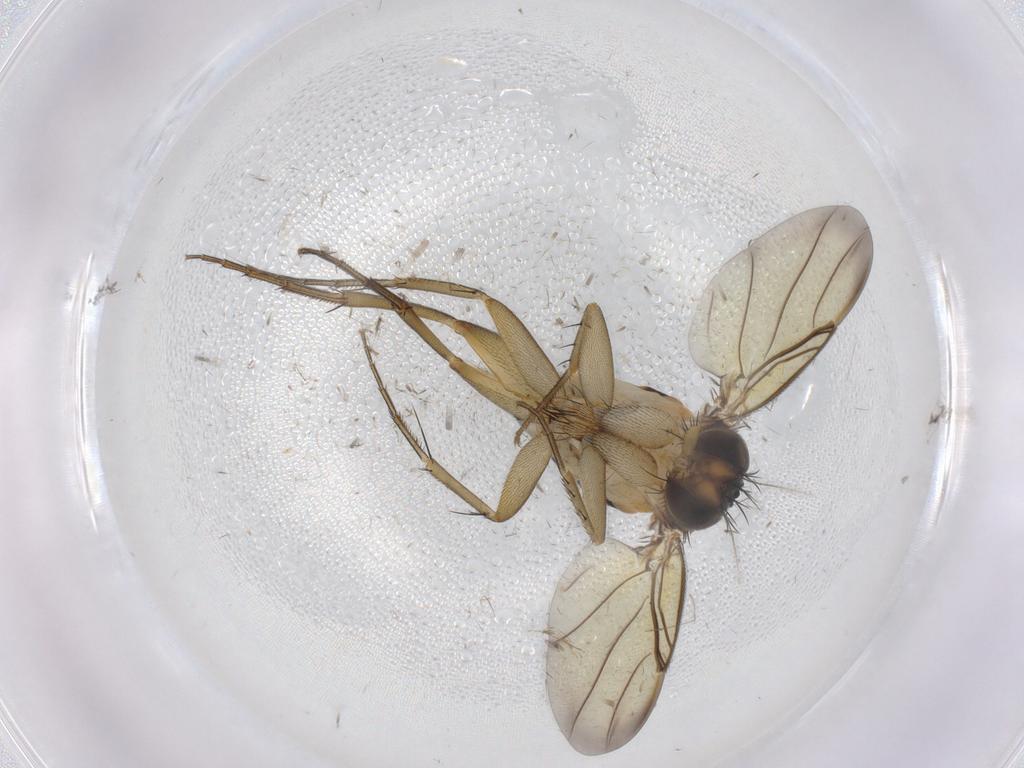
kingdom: Animalia
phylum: Arthropoda
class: Insecta
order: Diptera
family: Phoridae
